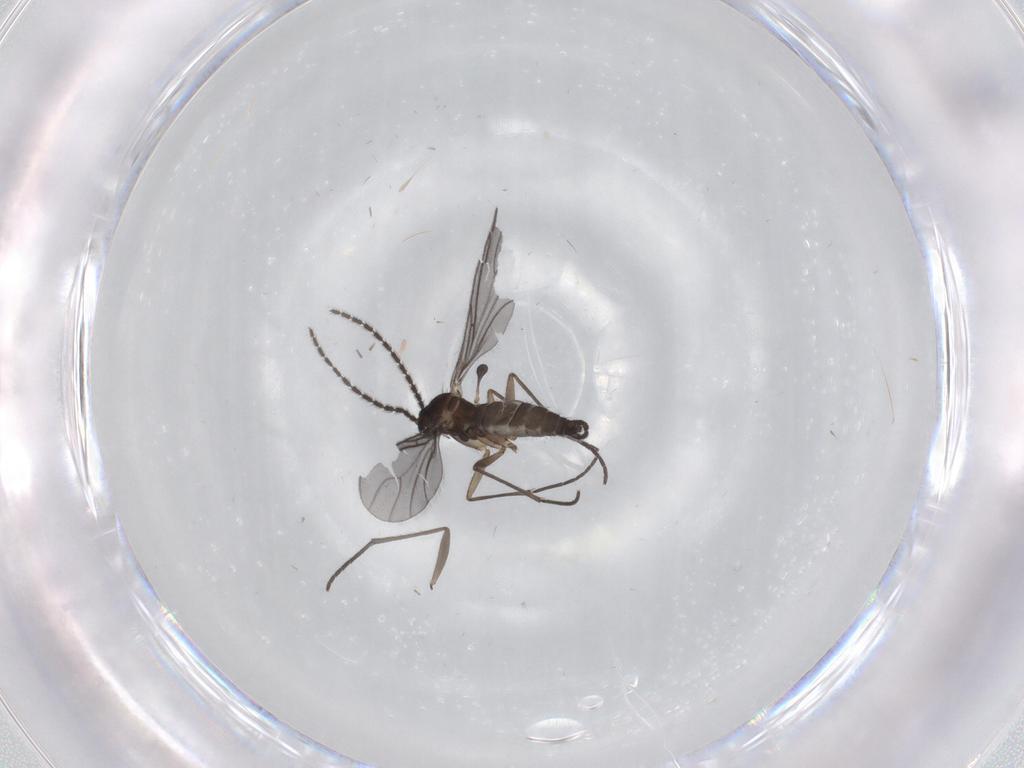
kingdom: Animalia
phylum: Arthropoda
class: Insecta
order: Diptera
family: Sciaridae
